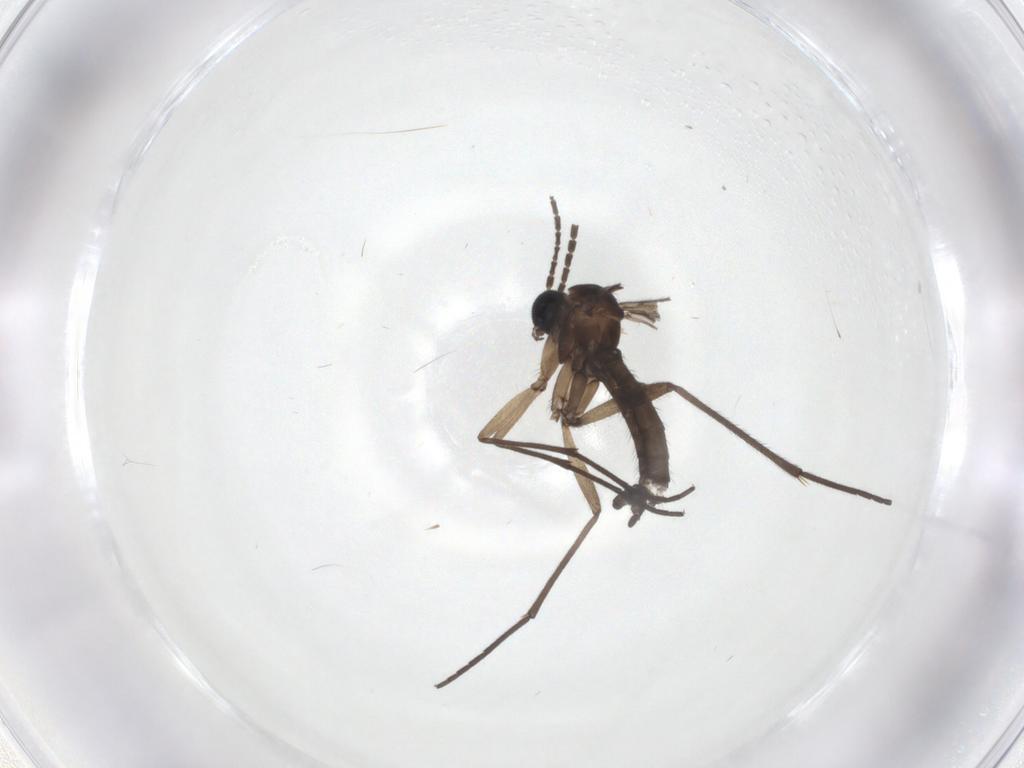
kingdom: Animalia
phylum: Arthropoda
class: Insecta
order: Diptera
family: Sciaridae
